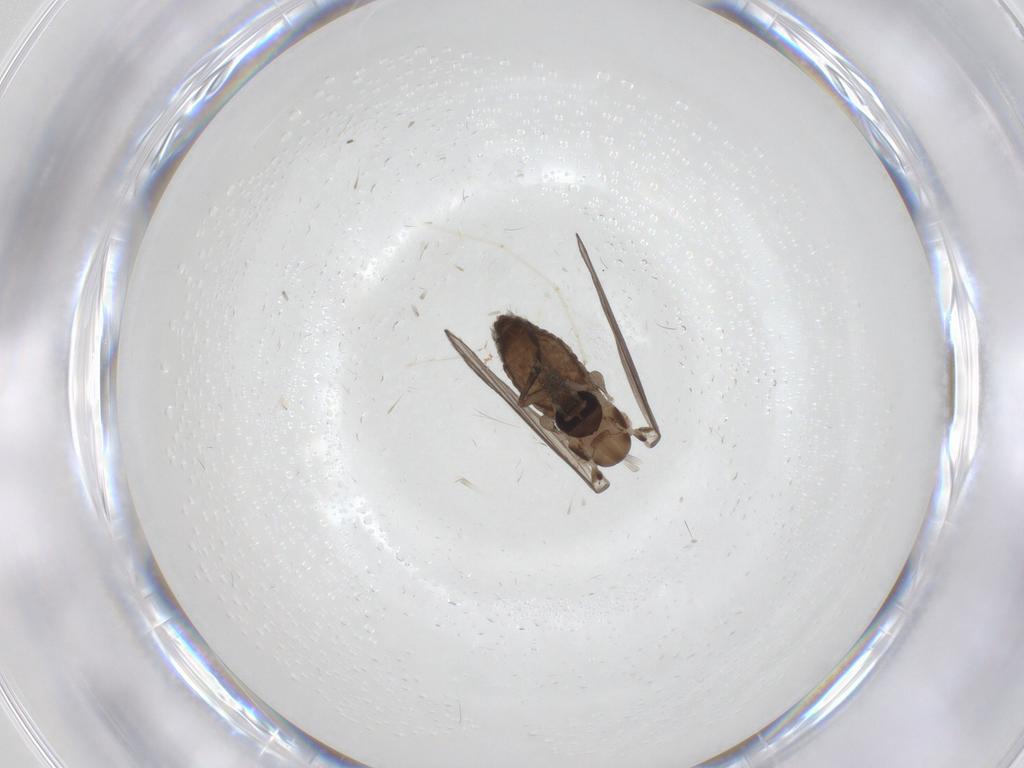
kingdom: Animalia
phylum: Arthropoda
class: Insecta
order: Diptera
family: Psychodidae
